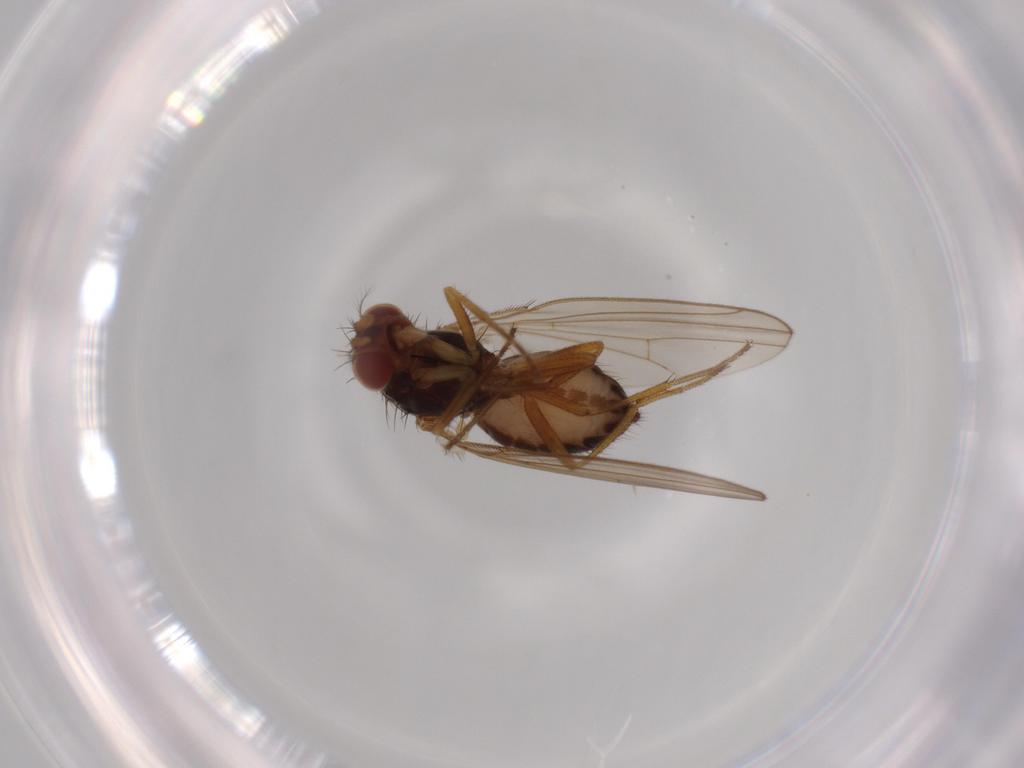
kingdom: Animalia
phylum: Arthropoda
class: Insecta
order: Diptera
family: Drosophilidae
